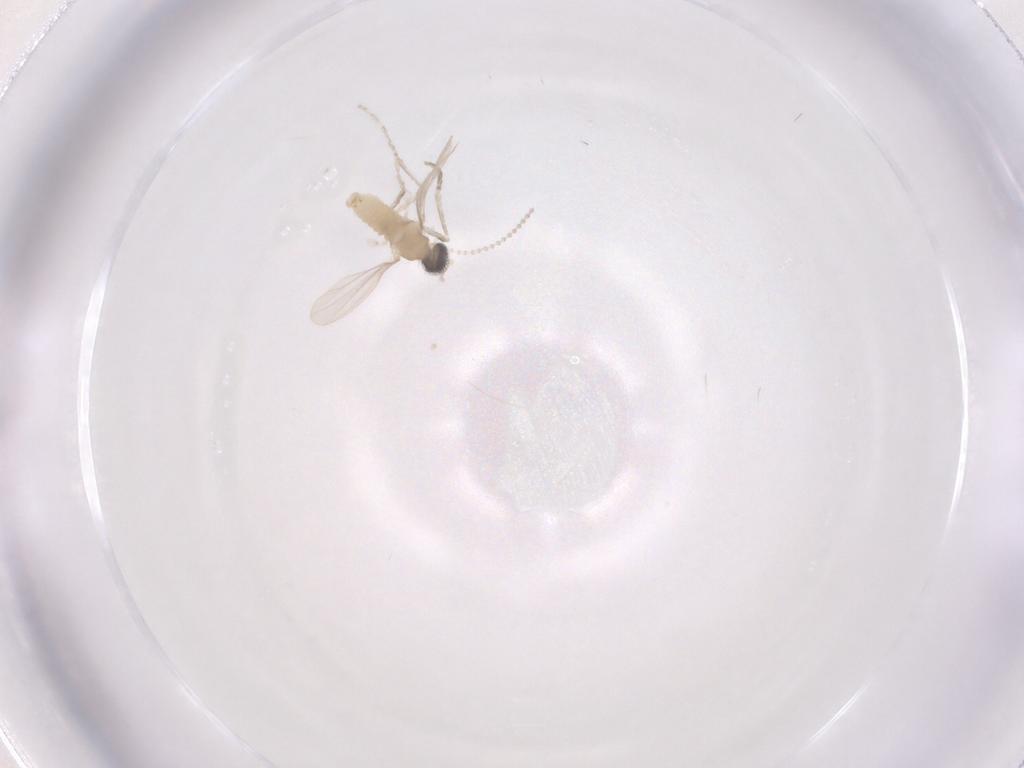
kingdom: Animalia
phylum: Arthropoda
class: Insecta
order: Diptera
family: Cecidomyiidae
